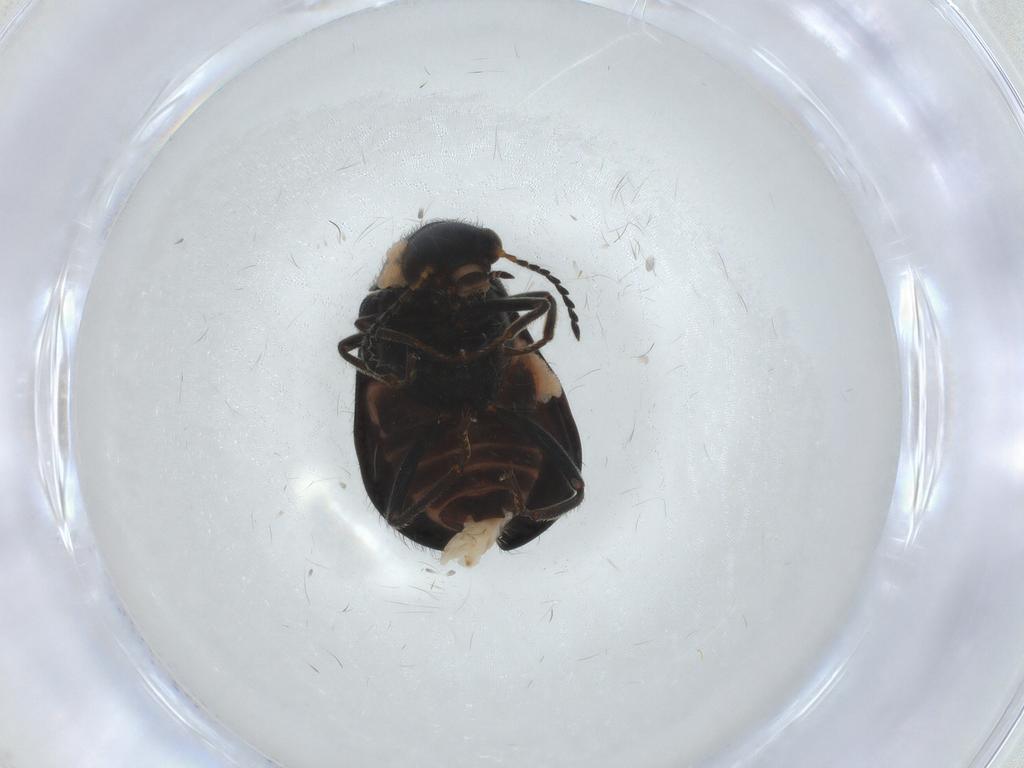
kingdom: Animalia
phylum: Arthropoda
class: Insecta
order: Coleoptera
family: Melyridae
